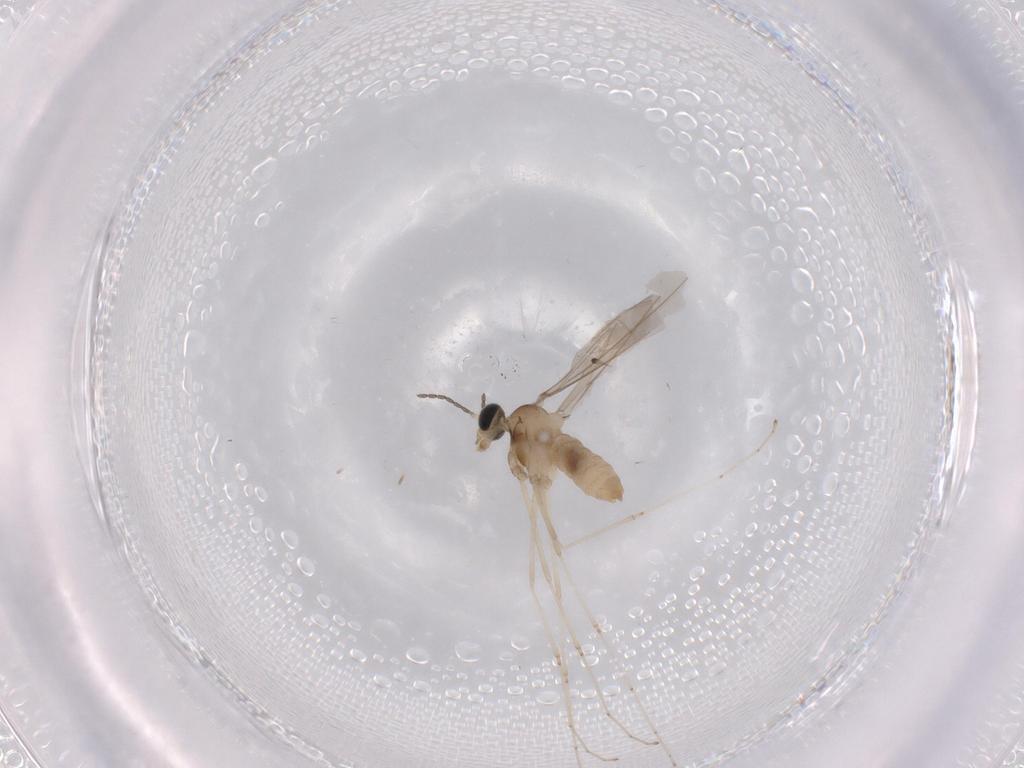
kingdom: Animalia
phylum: Arthropoda
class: Insecta
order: Diptera
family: Cecidomyiidae
